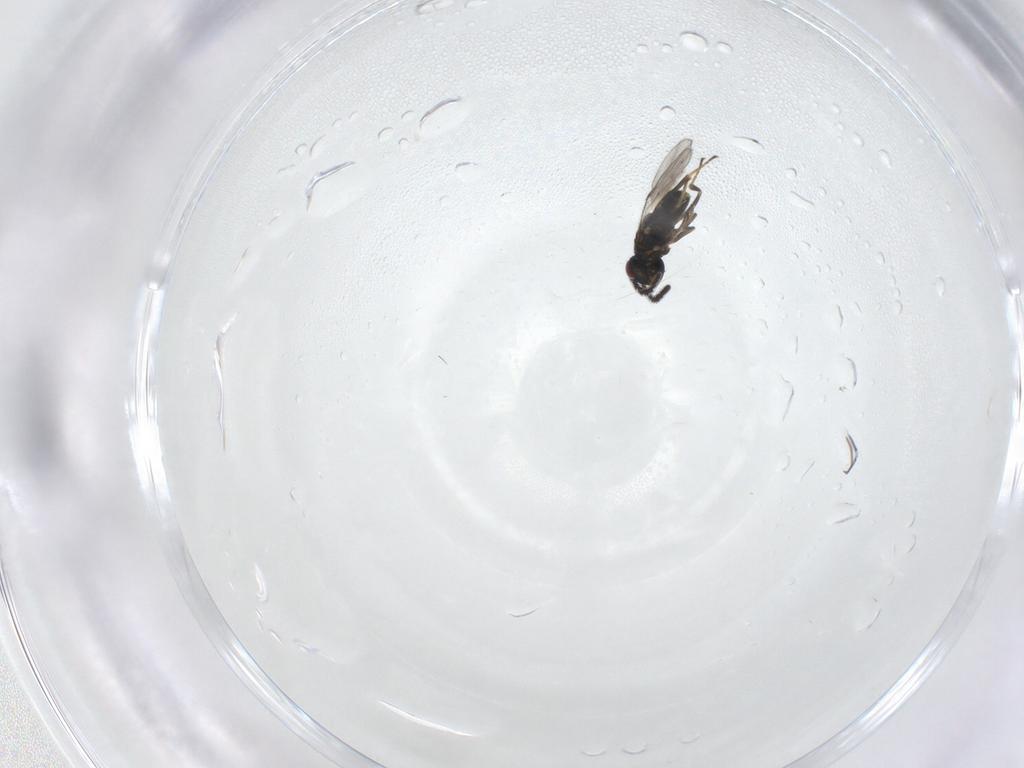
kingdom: Animalia
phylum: Arthropoda
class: Insecta
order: Hymenoptera
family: Encyrtidae
